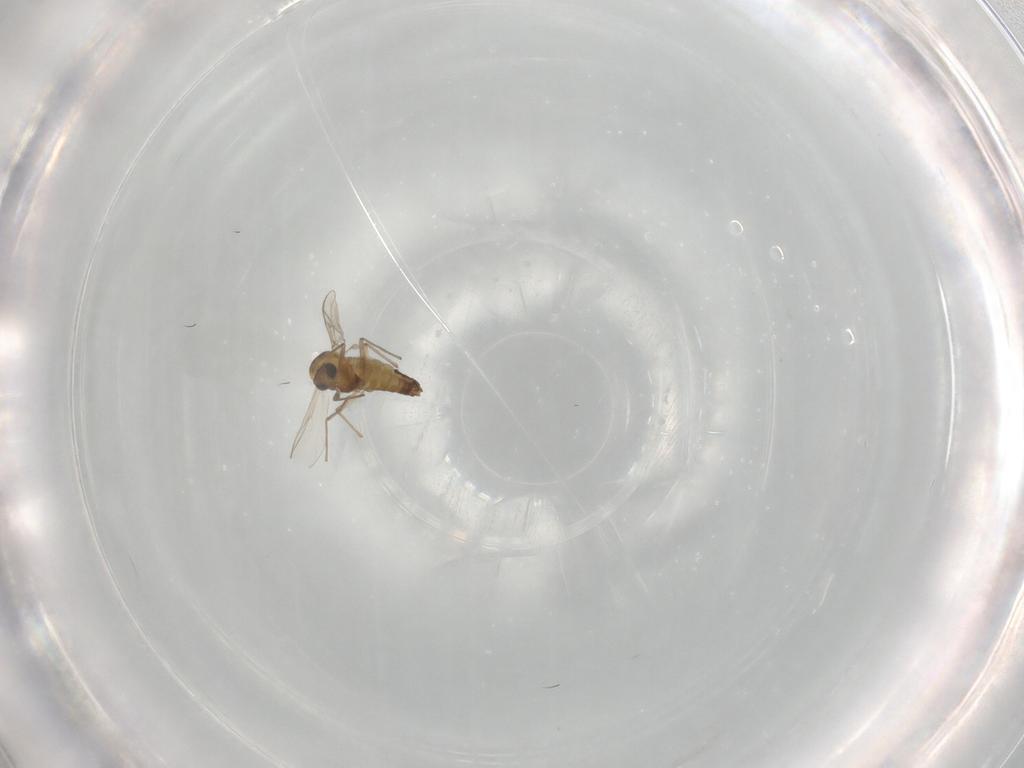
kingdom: Animalia
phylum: Arthropoda
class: Insecta
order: Diptera
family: Chironomidae
